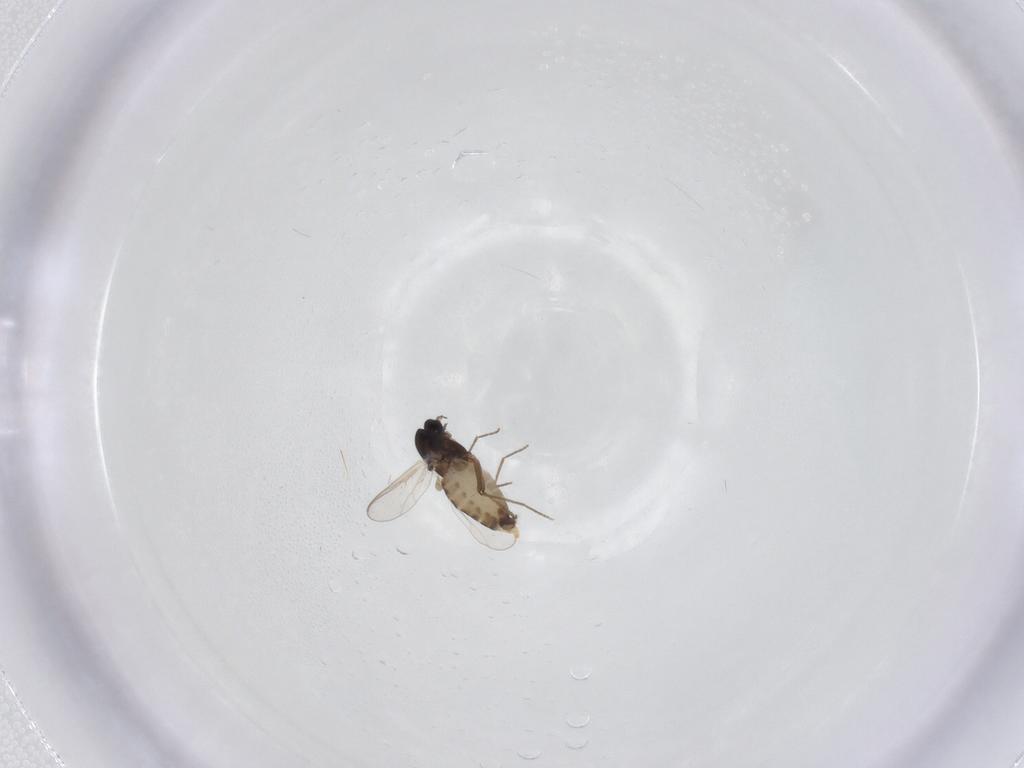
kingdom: Animalia
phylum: Arthropoda
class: Insecta
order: Diptera
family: Chironomidae
